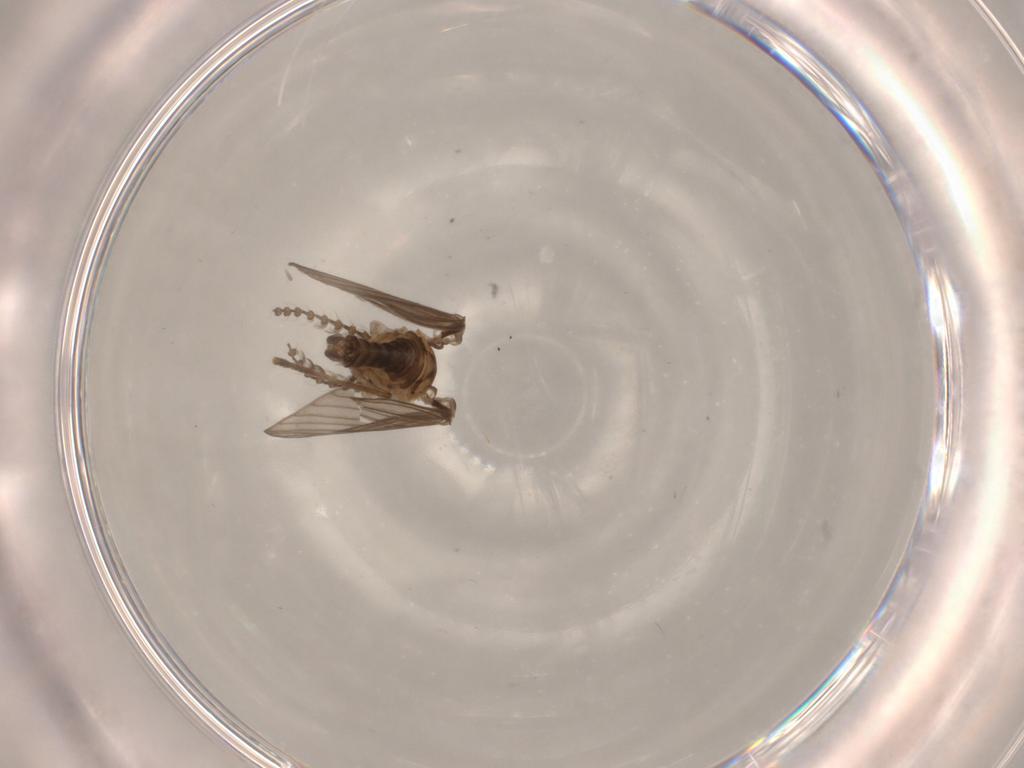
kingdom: Animalia
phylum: Arthropoda
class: Insecta
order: Diptera
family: Psychodidae
